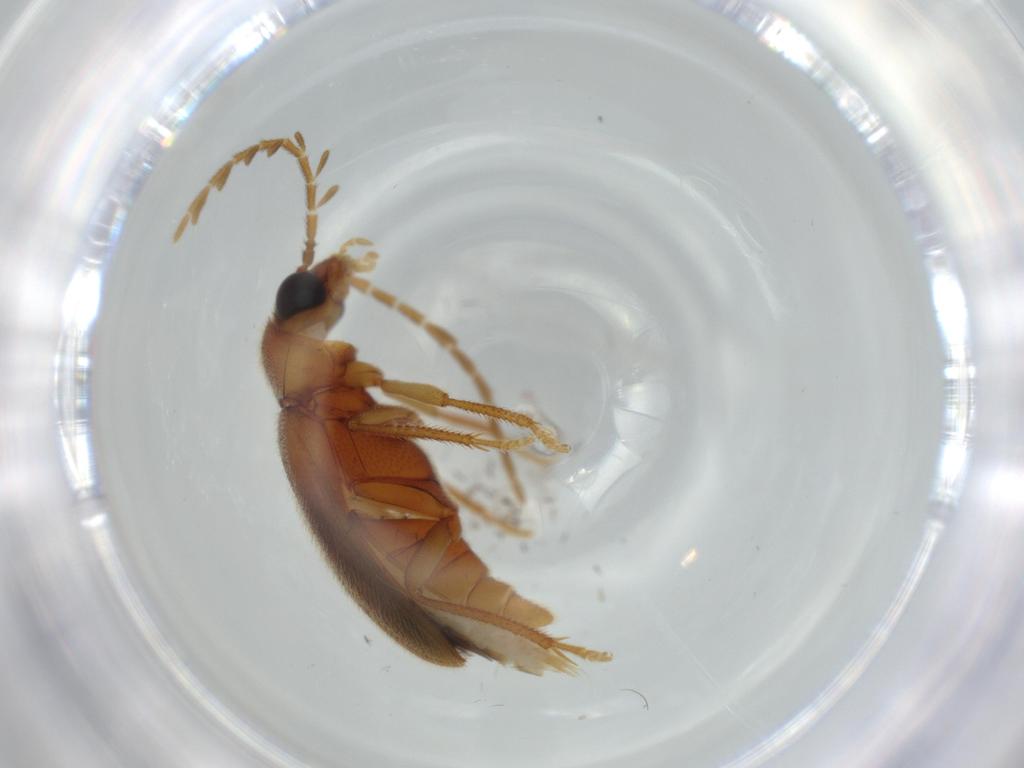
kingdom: Animalia
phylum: Arthropoda
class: Insecta
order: Coleoptera
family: Ptilodactylidae
